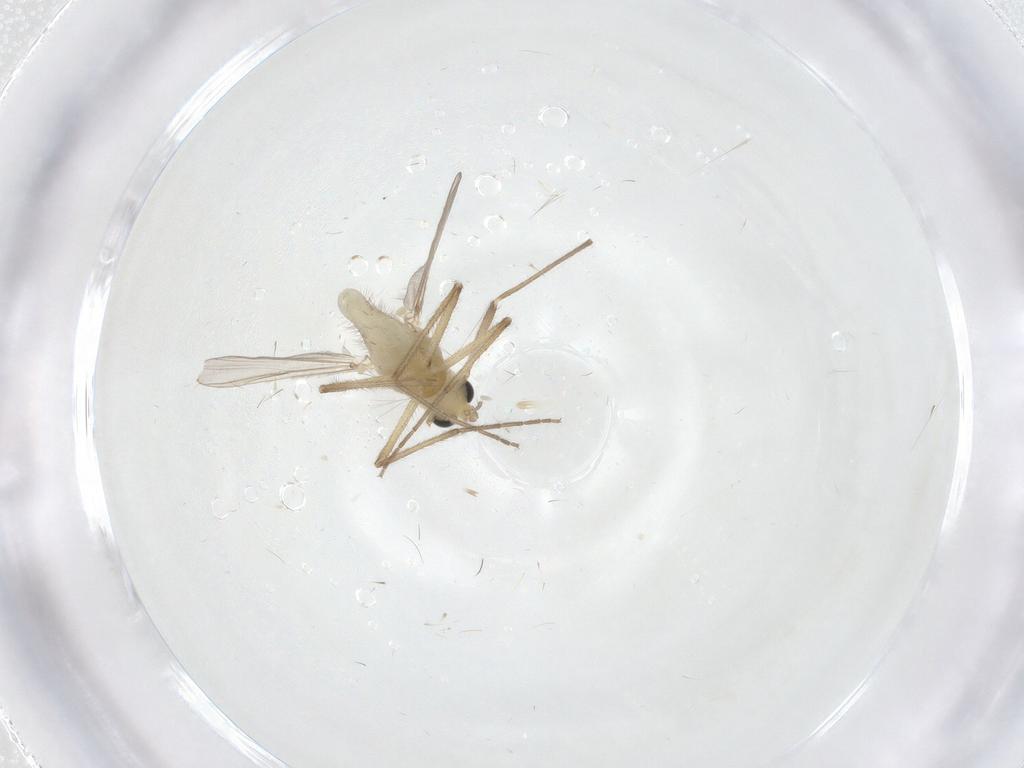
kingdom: Animalia
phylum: Arthropoda
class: Insecta
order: Diptera
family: Chironomidae
